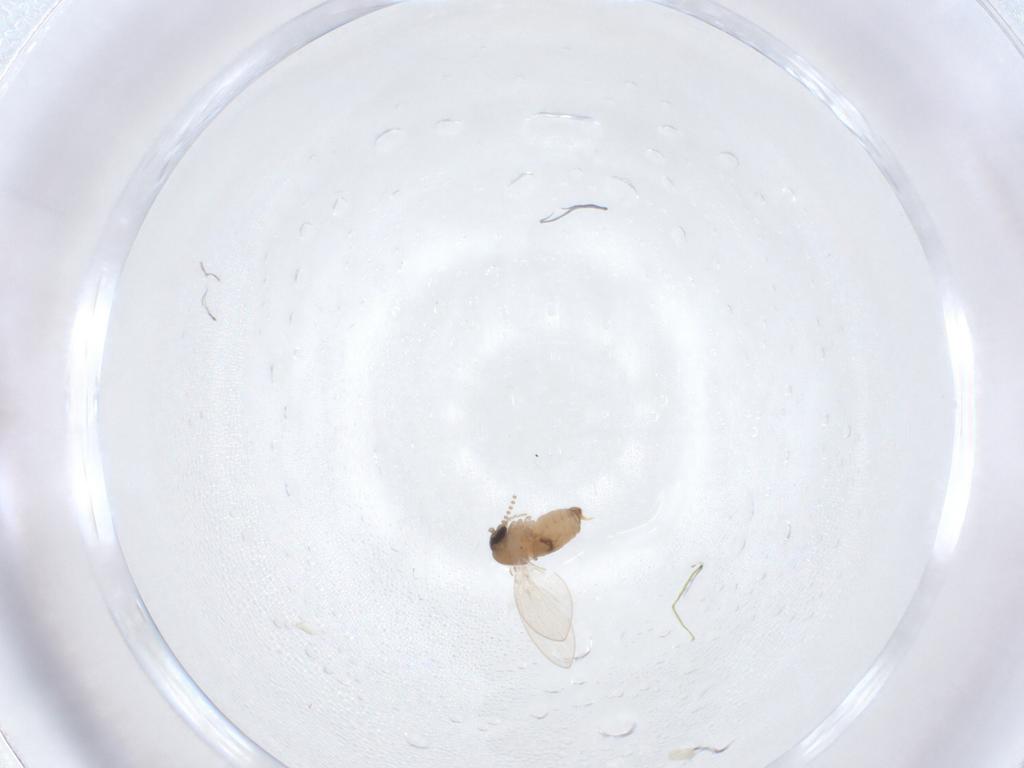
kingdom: Animalia
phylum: Arthropoda
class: Insecta
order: Diptera
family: Psychodidae
